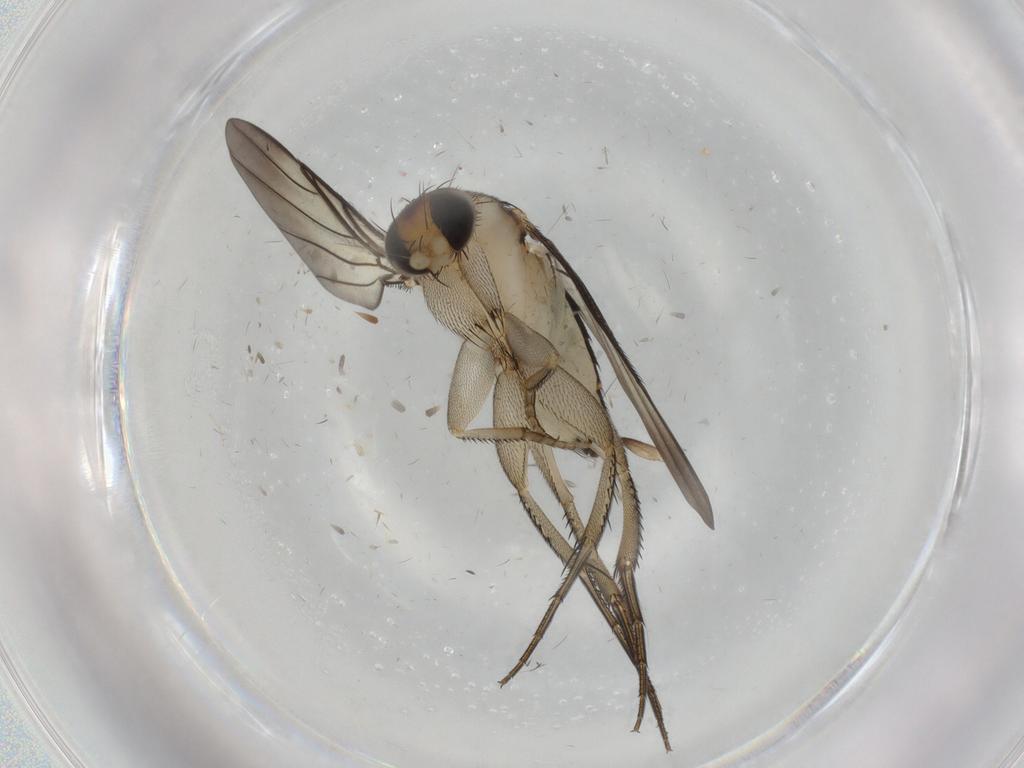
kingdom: Animalia
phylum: Arthropoda
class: Insecta
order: Diptera
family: Phoridae
